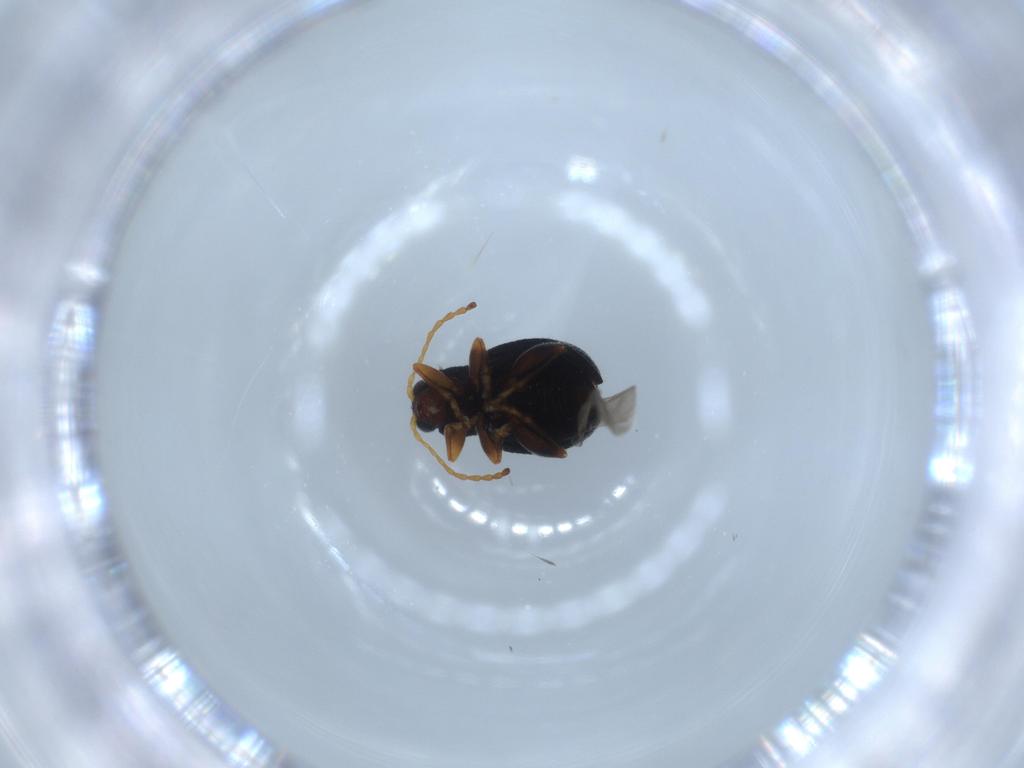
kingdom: Animalia
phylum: Arthropoda
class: Insecta
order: Coleoptera
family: Chrysomelidae
